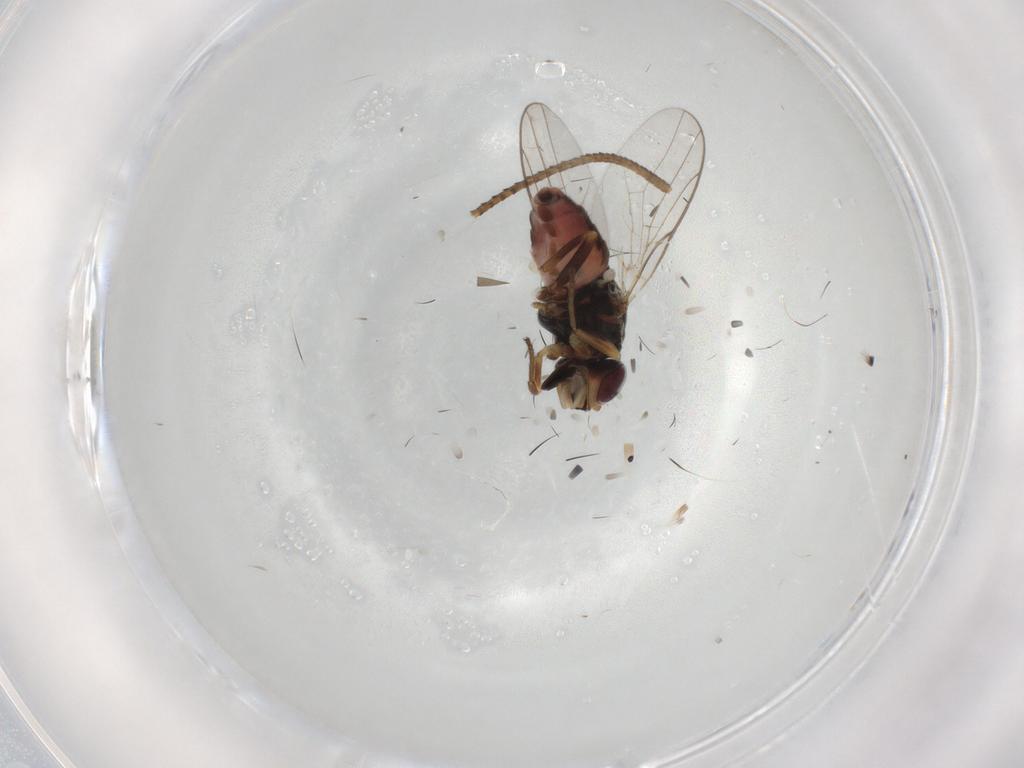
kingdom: Animalia
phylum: Arthropoda
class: Insecta
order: Diptera
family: Chloropidae
